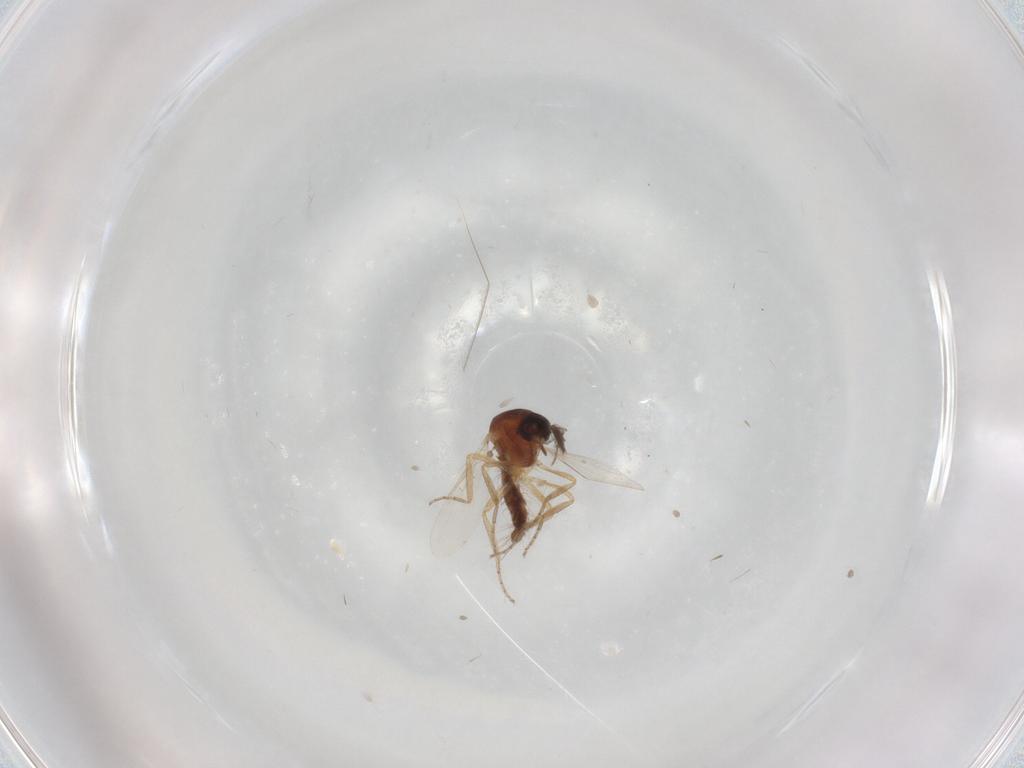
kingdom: Animalia
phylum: Arthropoda
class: Insecta
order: Diptera
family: Ceratopogonidae
